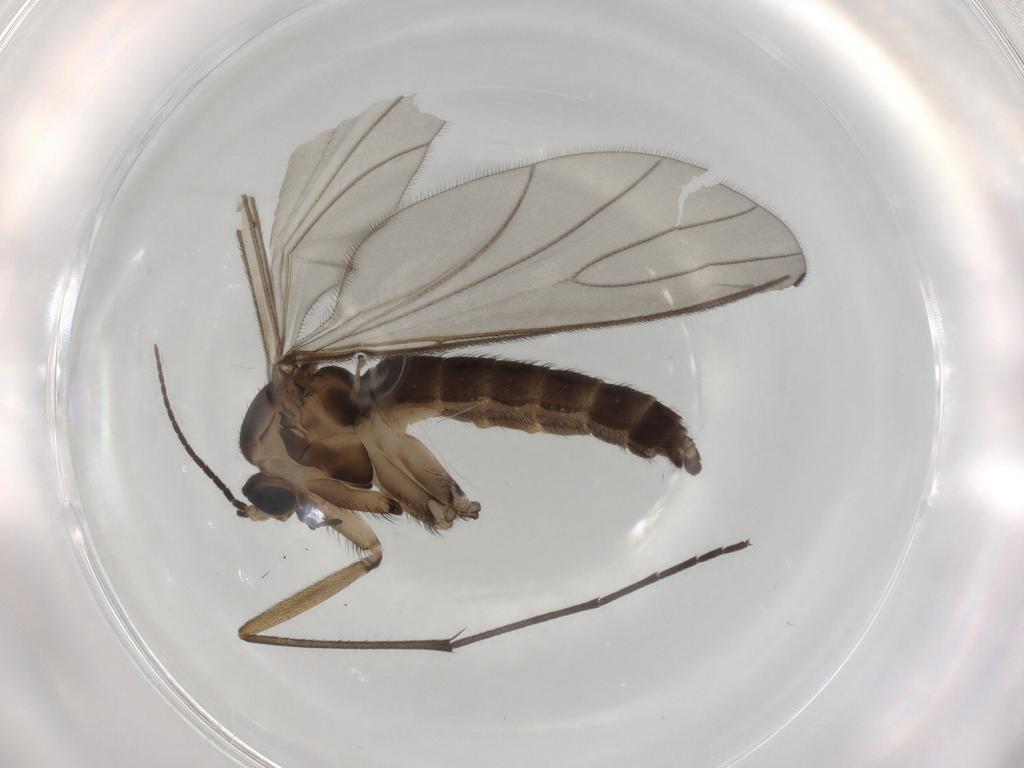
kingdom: Animalia
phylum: Arthropoda
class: Insecta
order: Diptera
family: Sciaridae
